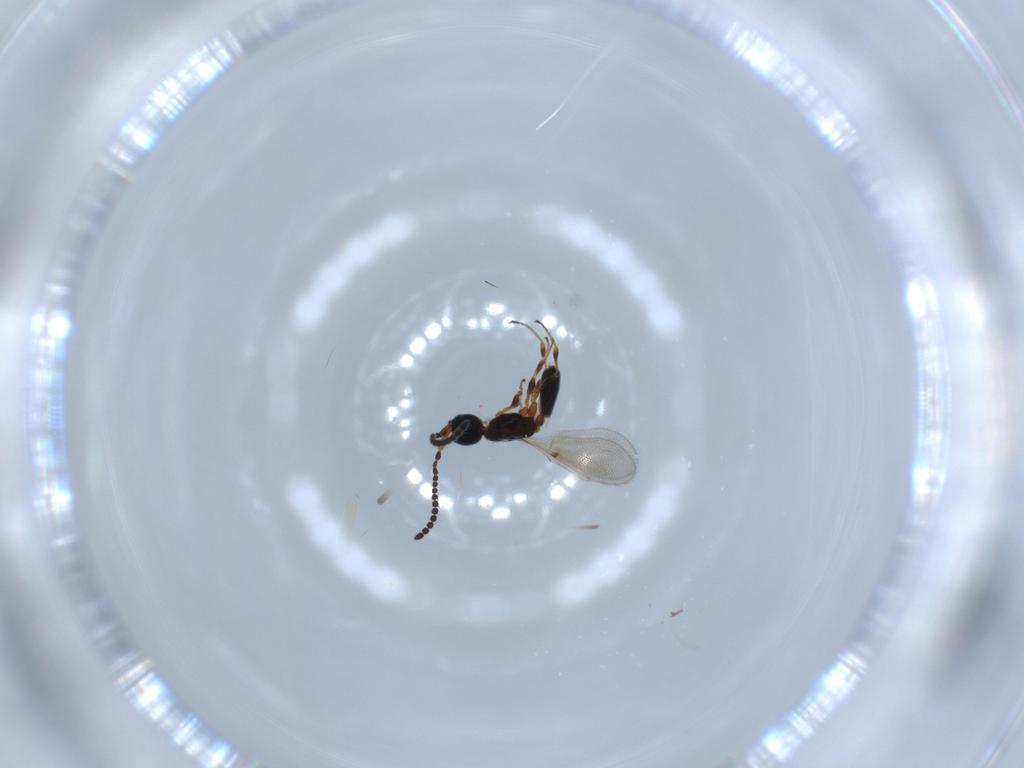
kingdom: Animalia
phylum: Arthropoda
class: Insecta
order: Hymenoptera
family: Diapriidae
